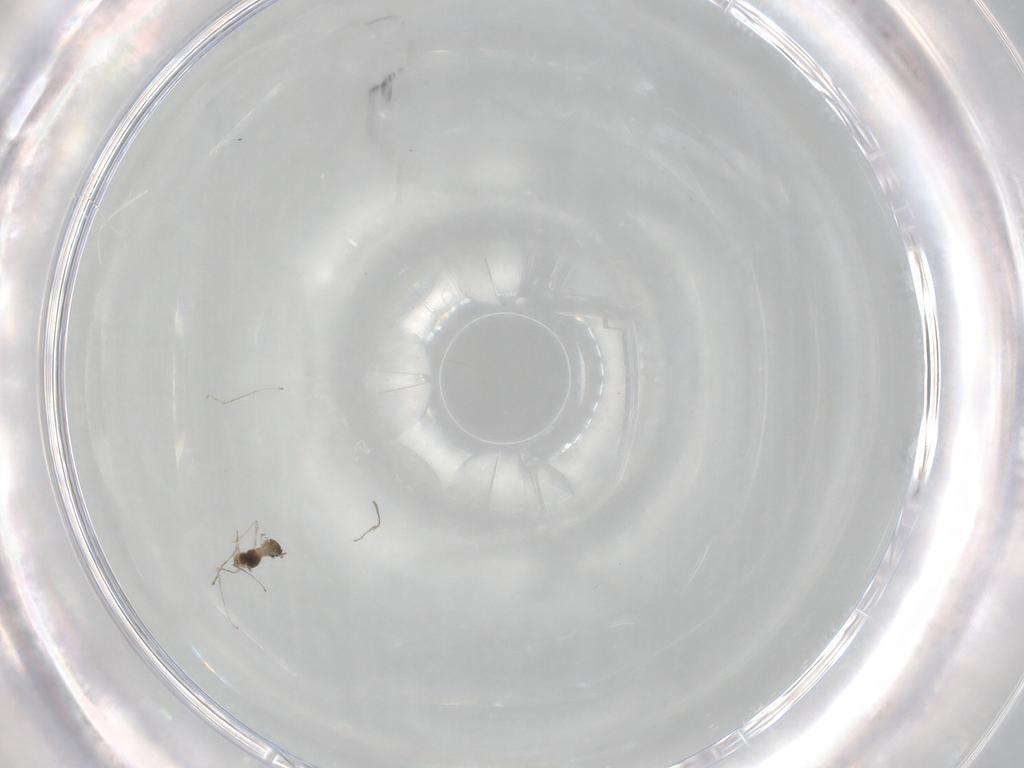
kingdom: Animalia
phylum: Arthropoda
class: Insecta
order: Diptera
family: Cecidomyiidae
